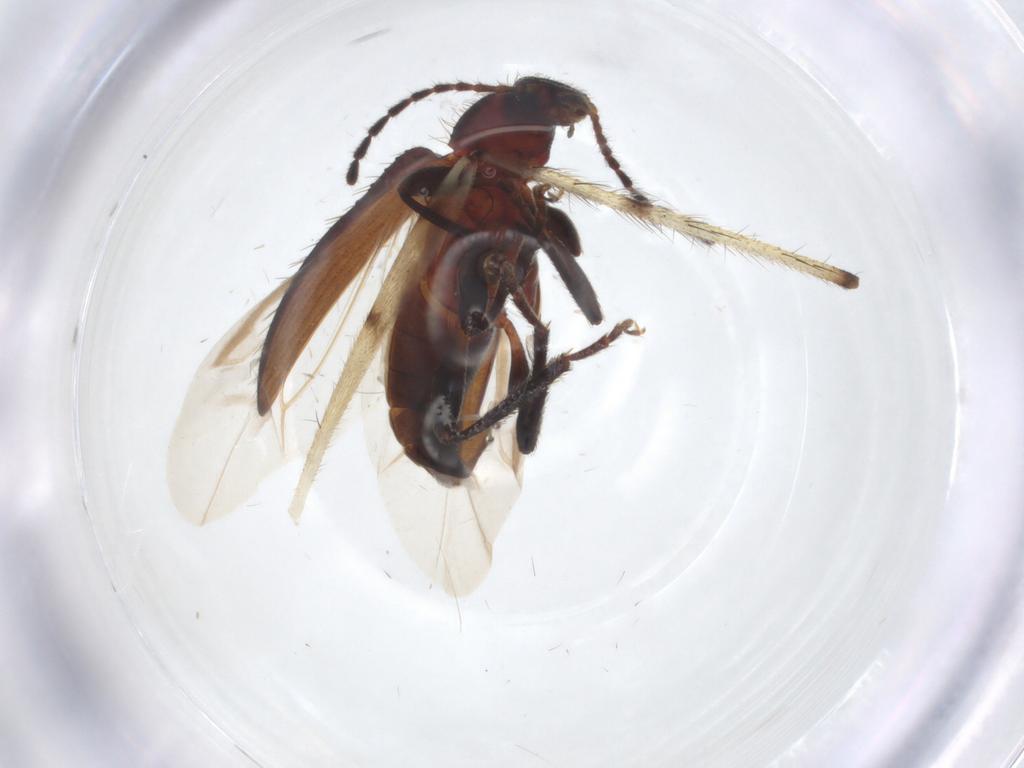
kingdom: Animalia
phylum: Arthropoda
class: Insecta
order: Diptera
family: Limoniidae
